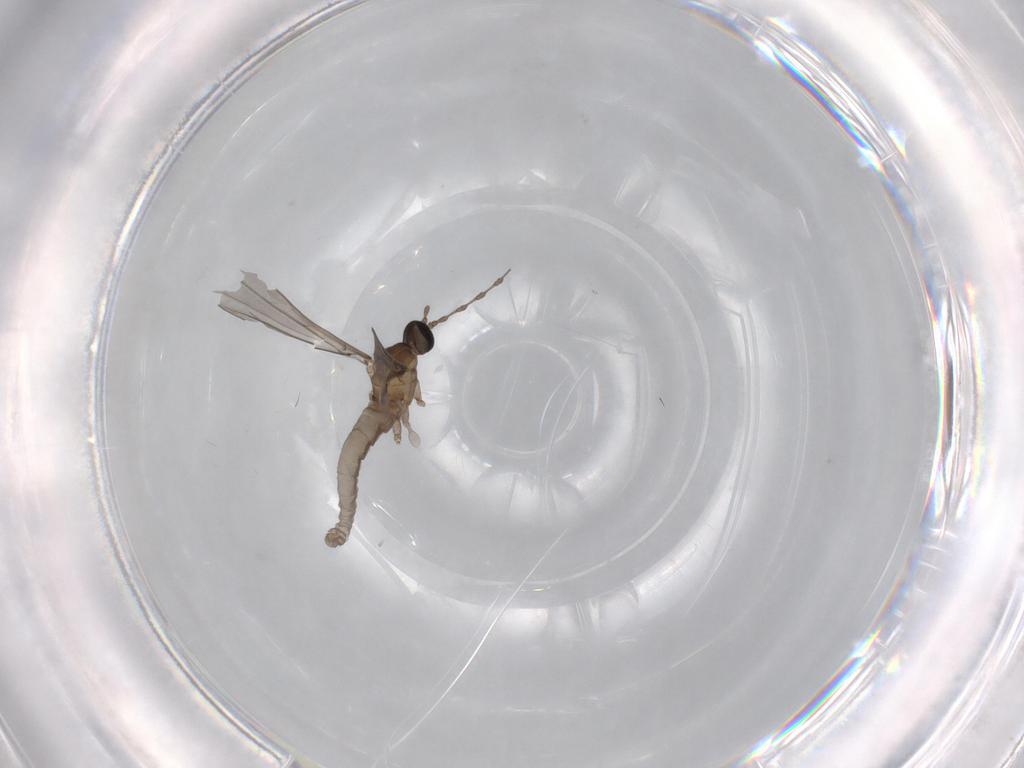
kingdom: Animalia
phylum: Arthropoda
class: Insecta
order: Diptera
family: Cecidomyiidae
